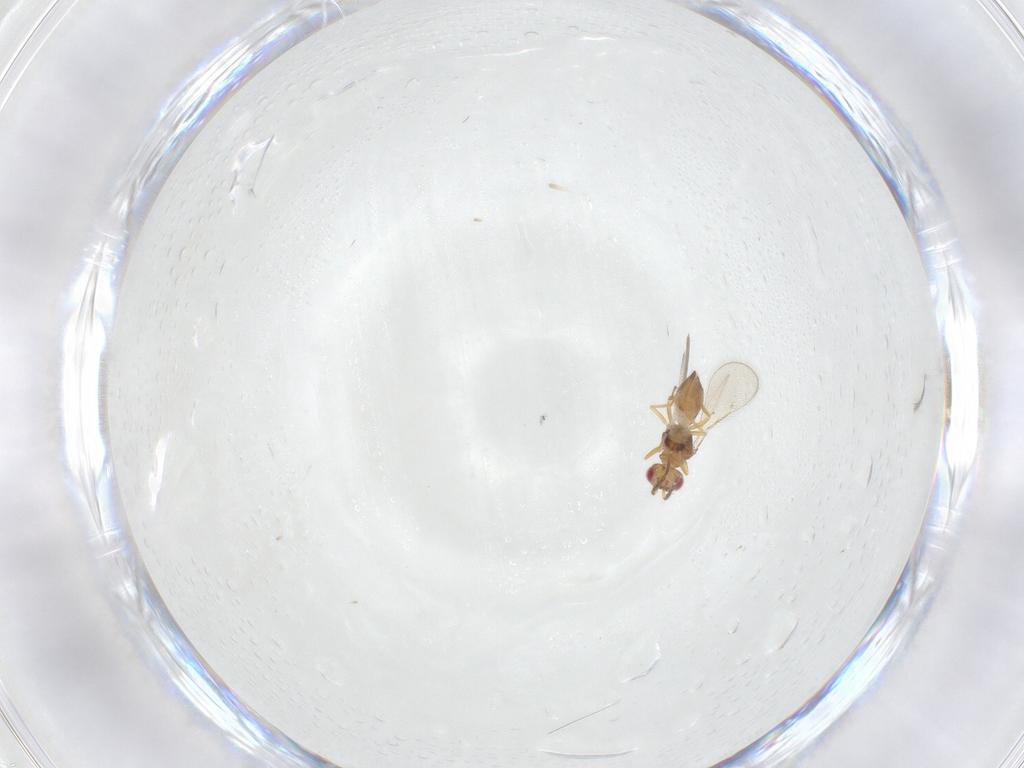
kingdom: Animalia
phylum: Arthropoda
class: Insecta
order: Hymenoptera
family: Eulophidae
